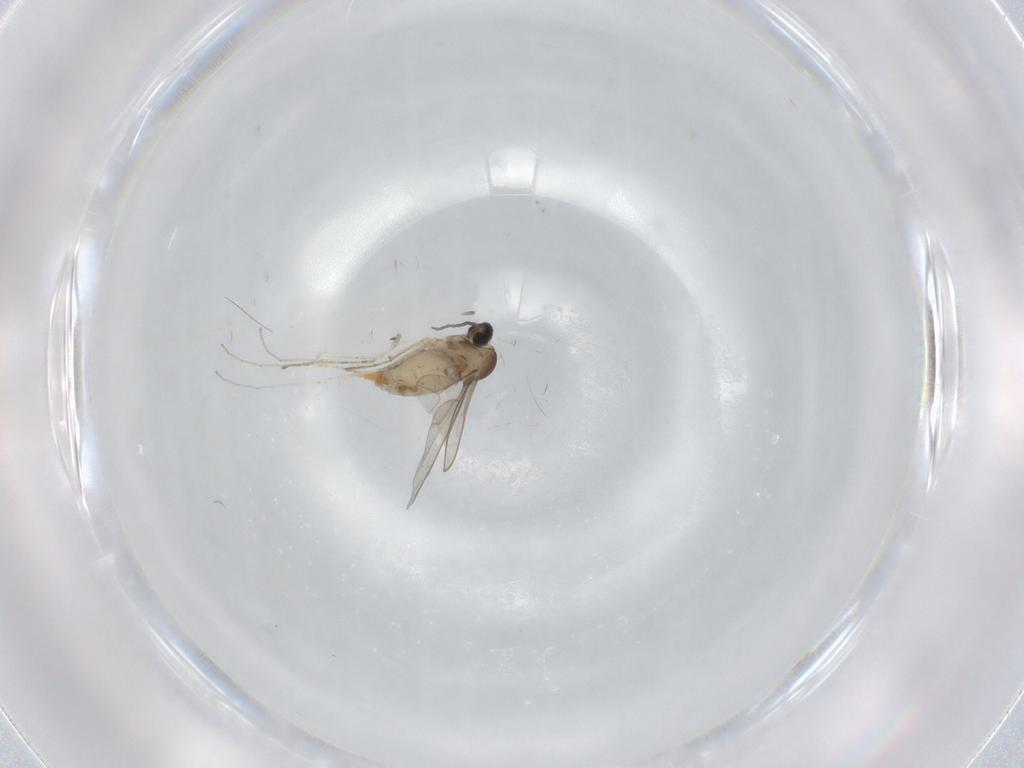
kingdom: Animalia
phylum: Arthropoda
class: Insecta
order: Diptera
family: Cecidomyiidae
